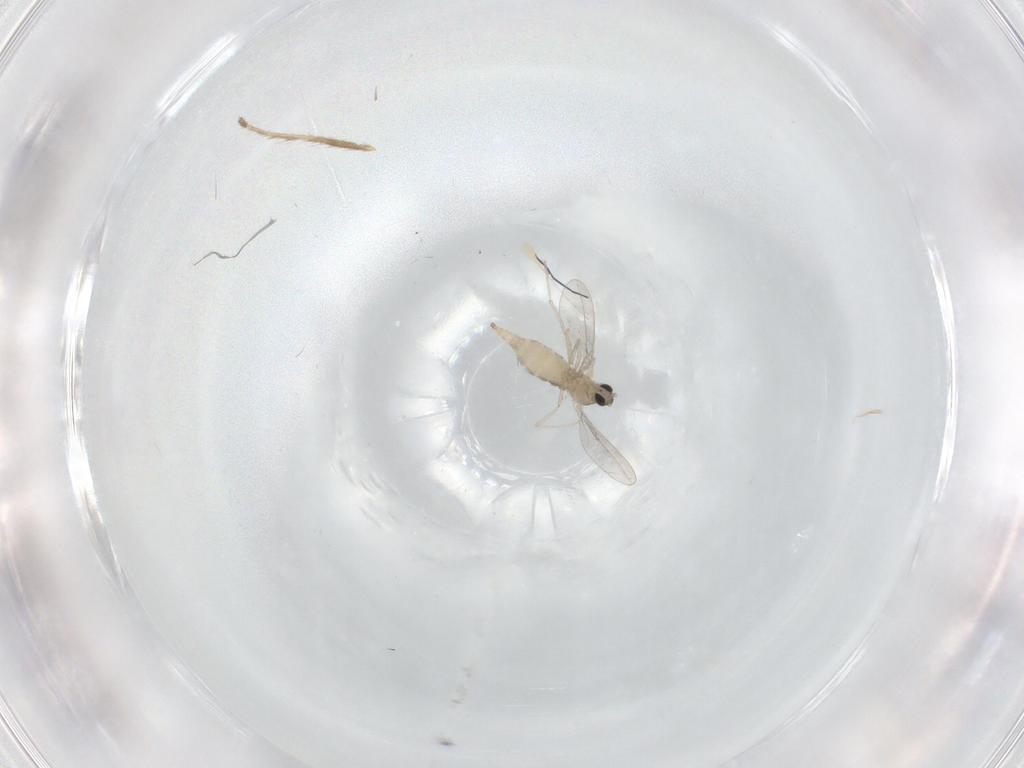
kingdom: Animalia
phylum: Arthropoda
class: Insecta
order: Diptera
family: Cecidomyiidae
